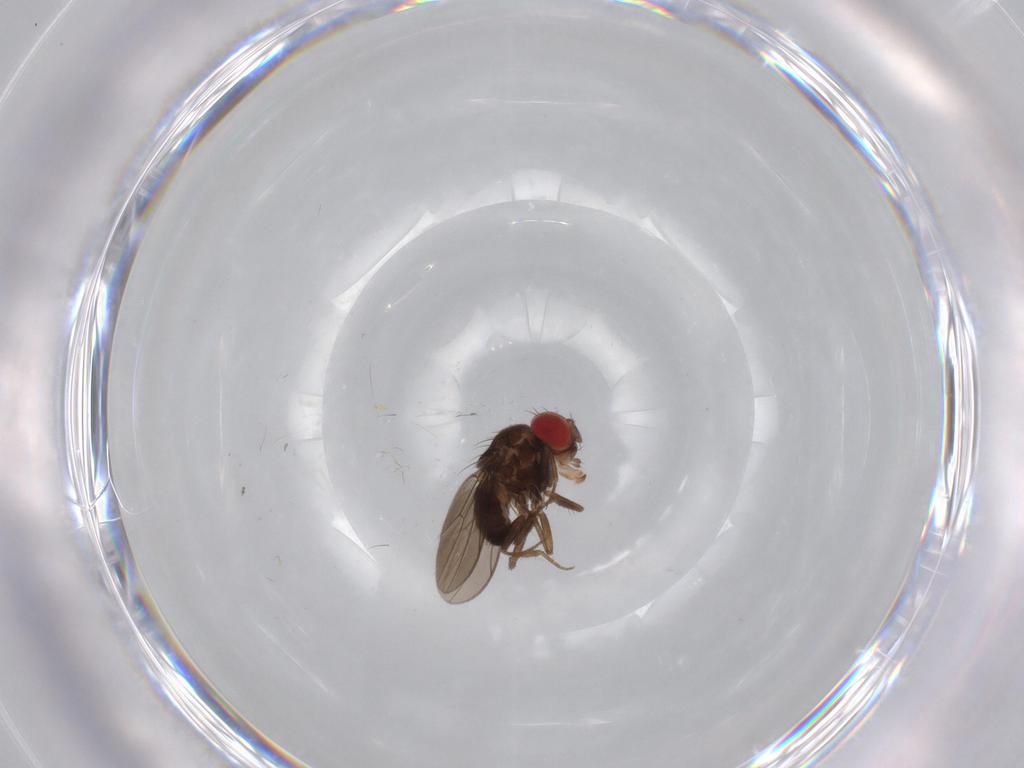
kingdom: Animalia
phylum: Arthropoda
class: Insecta
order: Diptera
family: Drosophilidae
